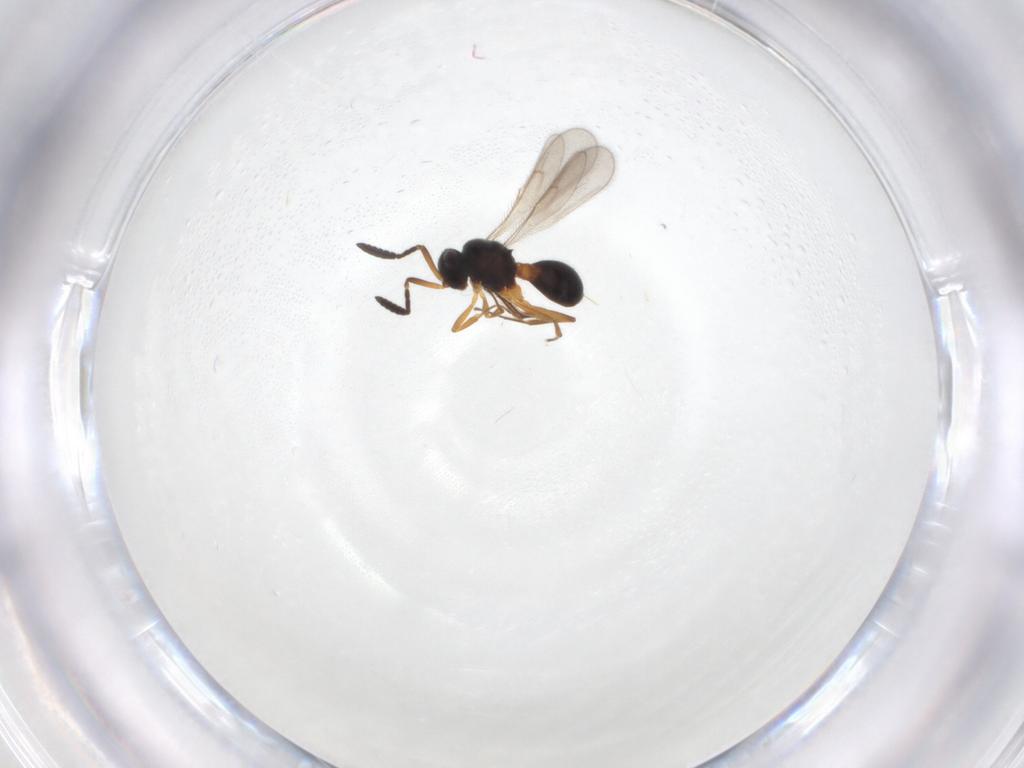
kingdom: Animalia
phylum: Arthropoda
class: Insecta
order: Hymenoptera
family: Scelionidae
